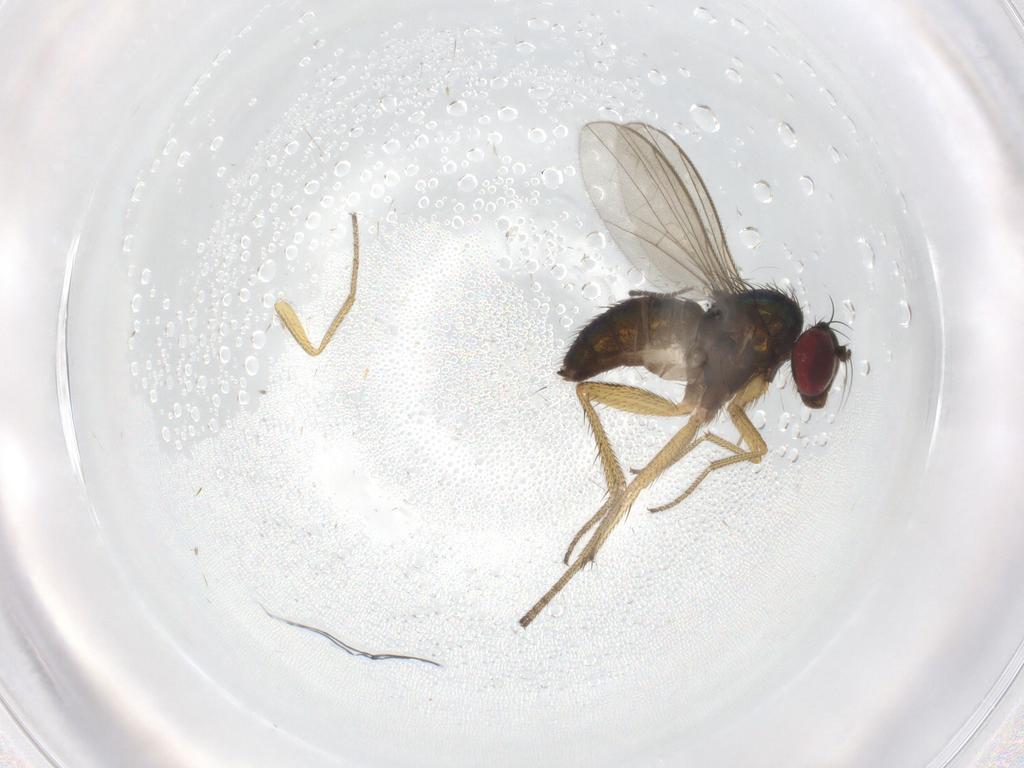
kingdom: Animalia
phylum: Arthropoda
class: Insecta
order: Diptera
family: Sciaridae
